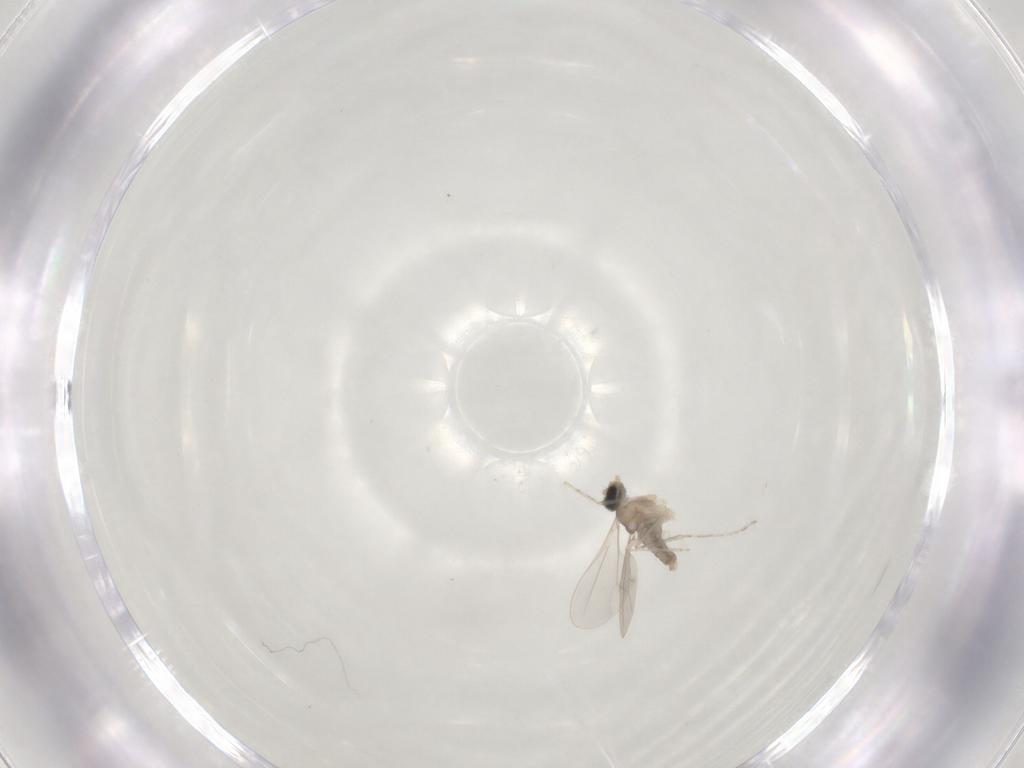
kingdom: Animalia
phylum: Arthropoda
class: Insecta
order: Diptera
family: Cecidomyiidae
